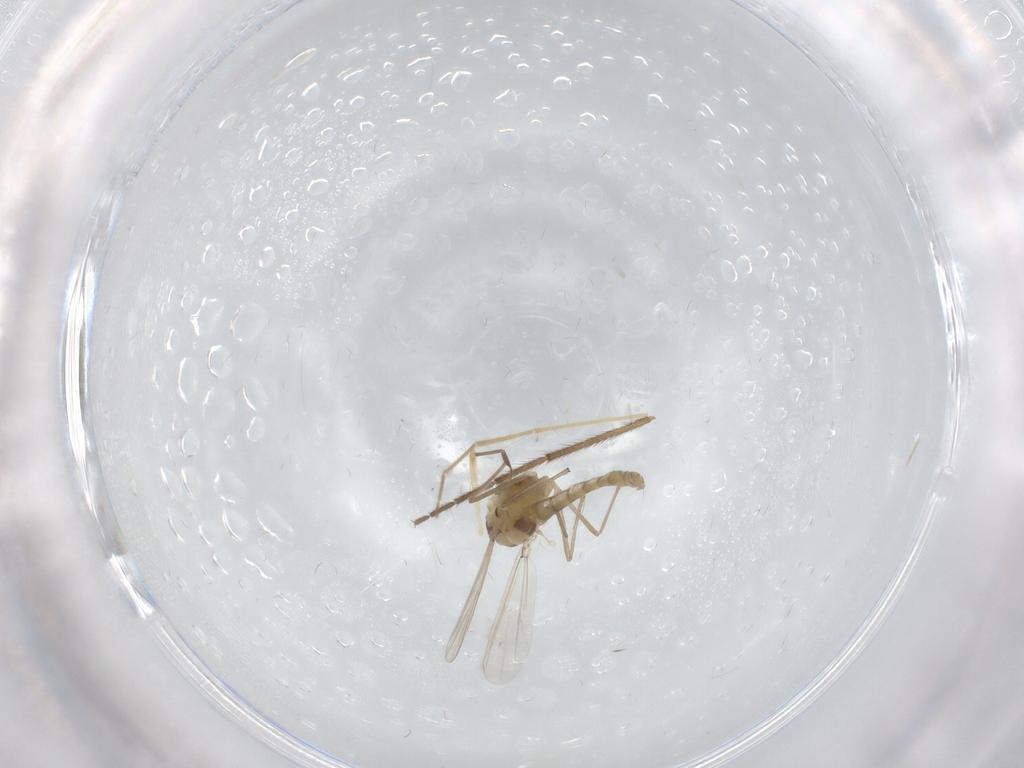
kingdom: Animalia
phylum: Arthropoda
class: Insecta
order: Diptera
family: Chironomidae
